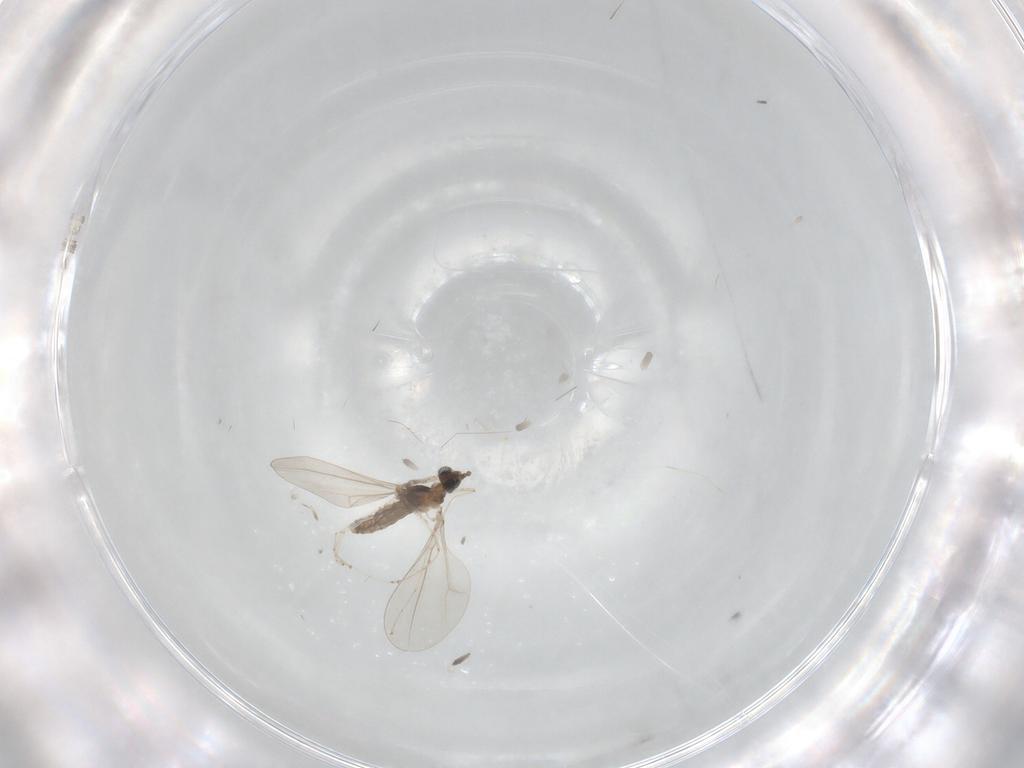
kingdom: Animalia
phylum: Arthropoda
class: Insecta
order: Diptera
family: Cecidomyiidae
